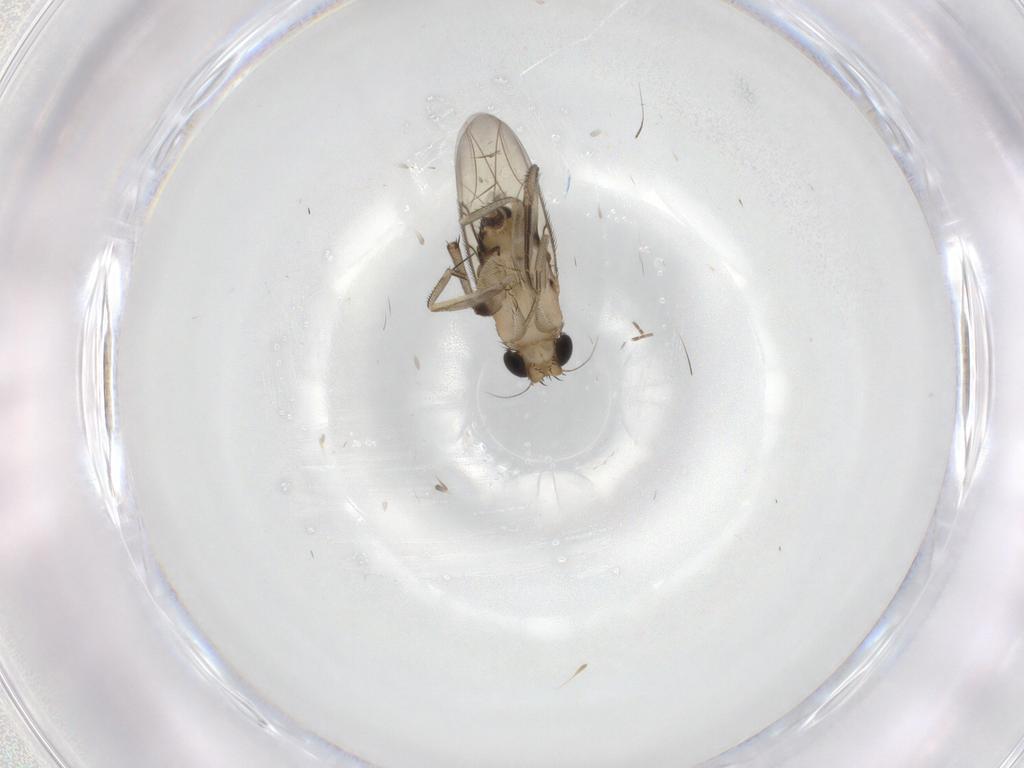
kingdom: Animalia
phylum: Arthropoda
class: Insecta
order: Diptera
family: Phoridae
